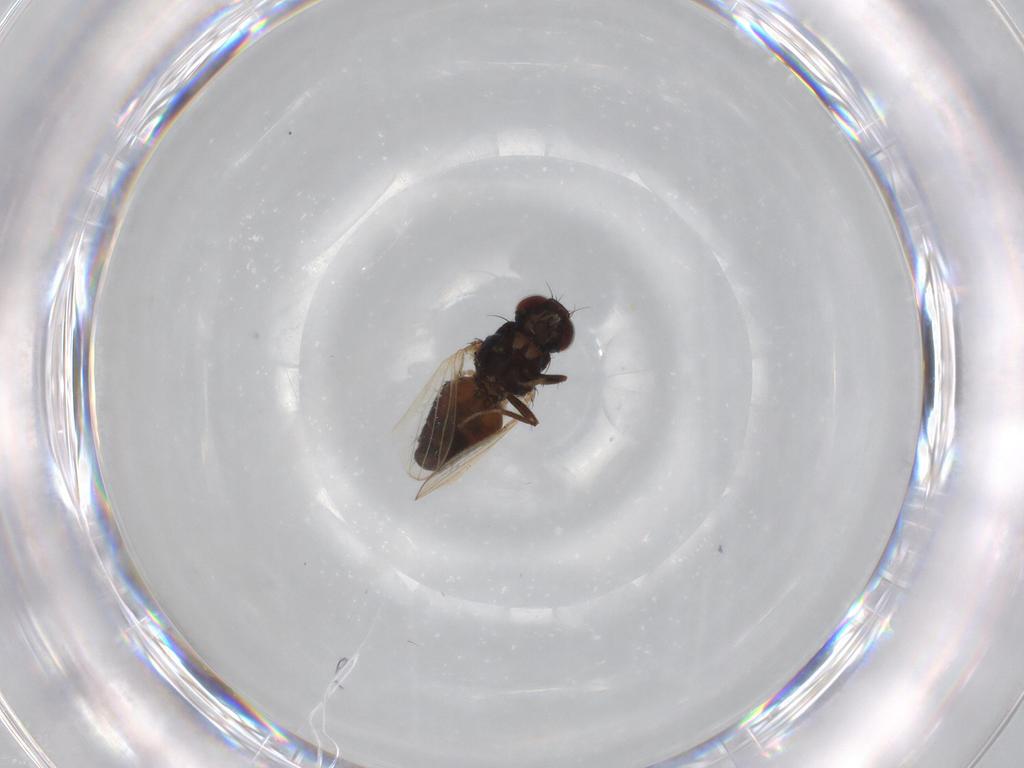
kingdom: Animalia
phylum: Arthropoda
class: Insecta
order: Diptera
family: Carnidae
